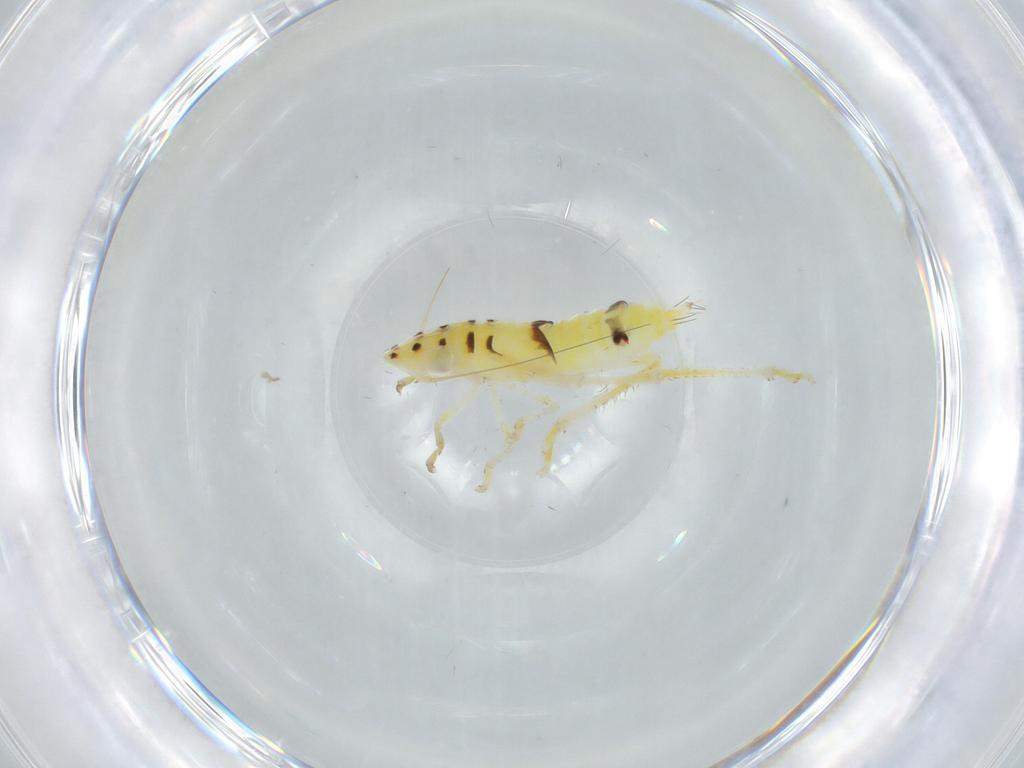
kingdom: Animalia
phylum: Arthropoda
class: Insecta
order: Hemiptera
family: Cicadellidae
